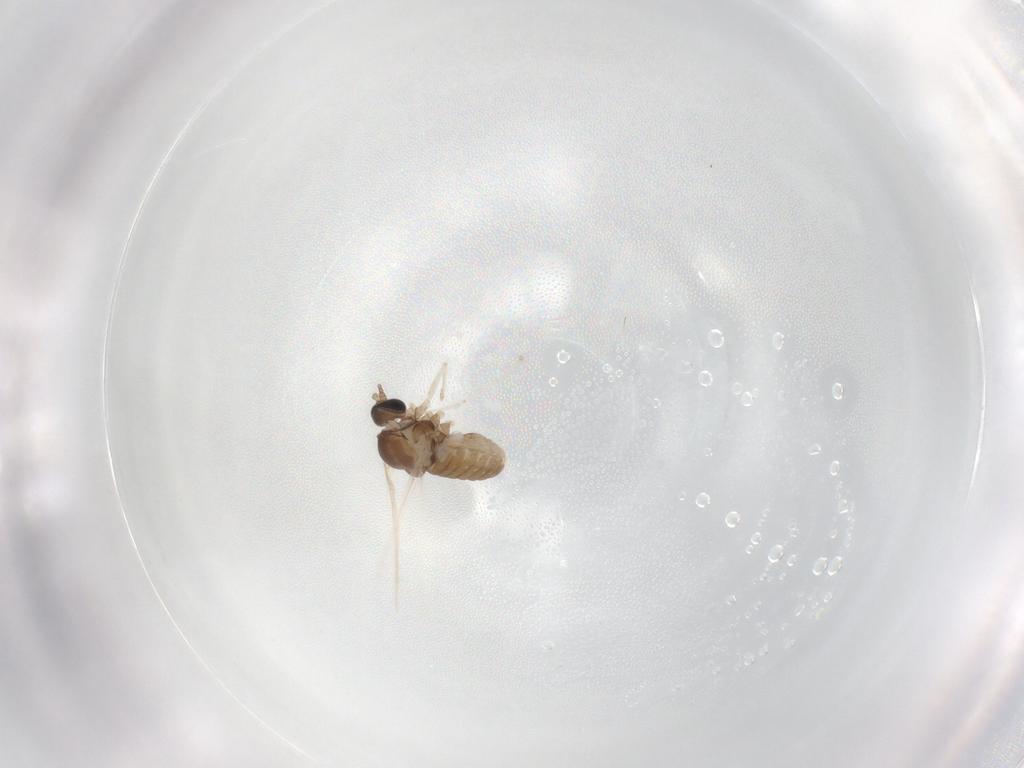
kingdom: Animalia
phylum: Arthropoda
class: Insecta
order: Diptera
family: Cecidomyiidae
